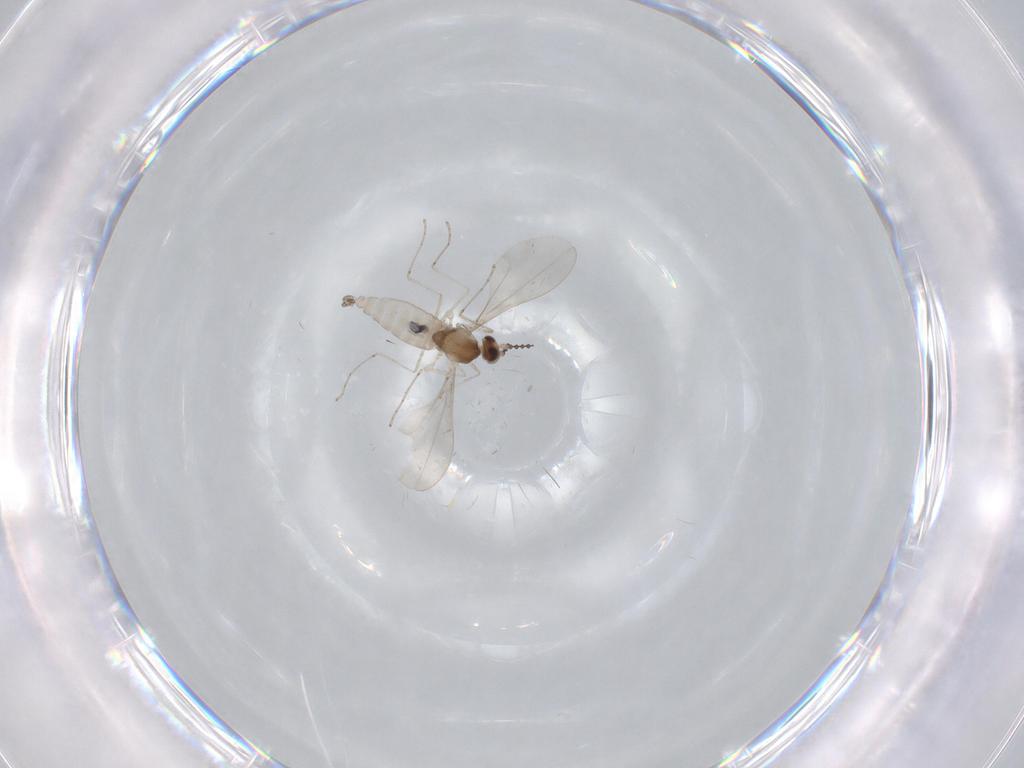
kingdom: Animalia
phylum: Arthropoda
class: Insecta
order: Diptera
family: Cecidomyiidae
